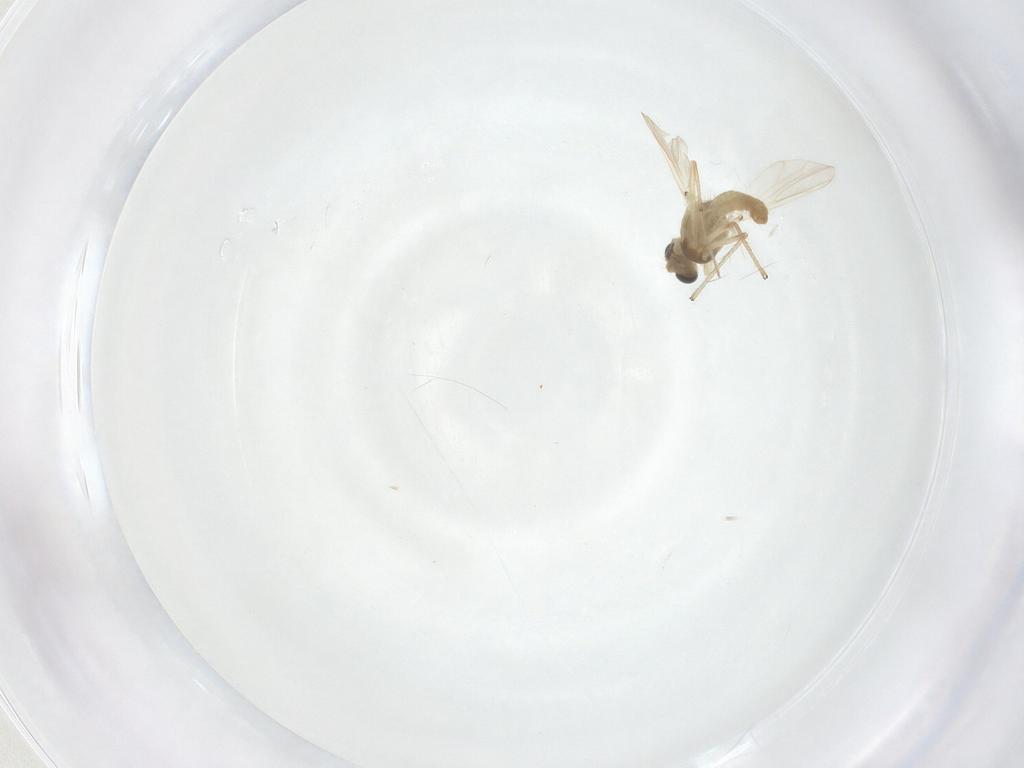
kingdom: Animalia
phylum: Arthropoda
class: Insecta
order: Diptera
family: Chironomidae
